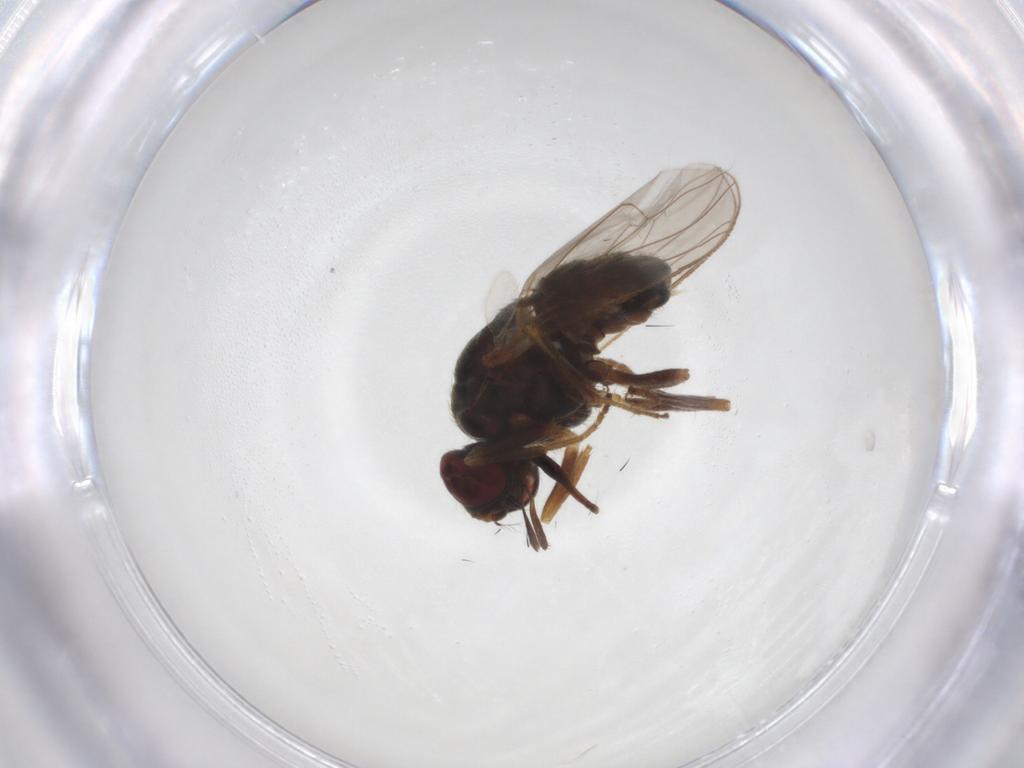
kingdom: Animalia
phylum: Arthropoda
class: Insecta
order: Diptera
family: Muscidae
